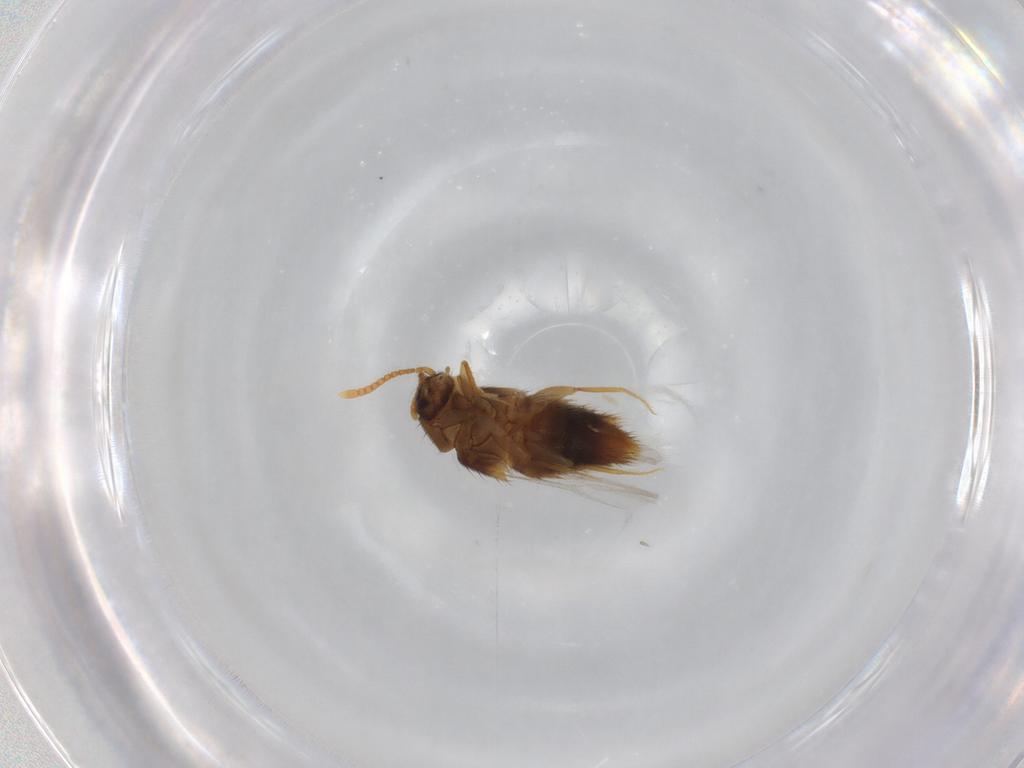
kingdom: Animalia
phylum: Arthropoda
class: Insecta
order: Coleoptera
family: Staphylinidae
